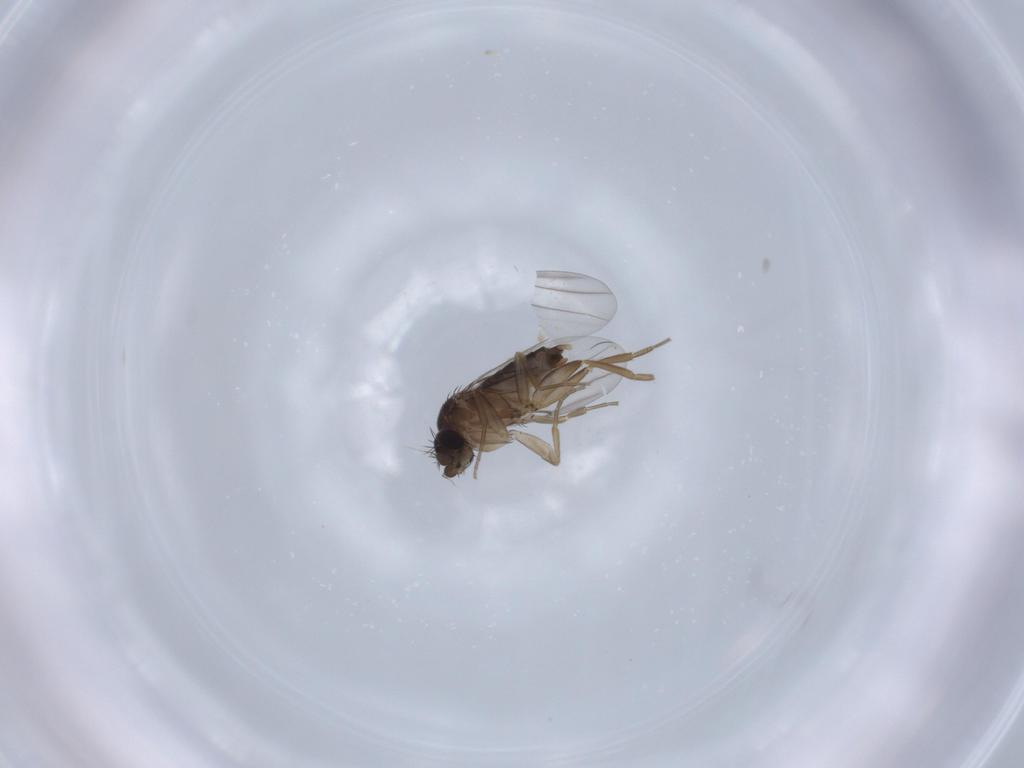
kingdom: Animalia
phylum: Arthropoda
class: Insecta
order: Diptera
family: Phoridae
